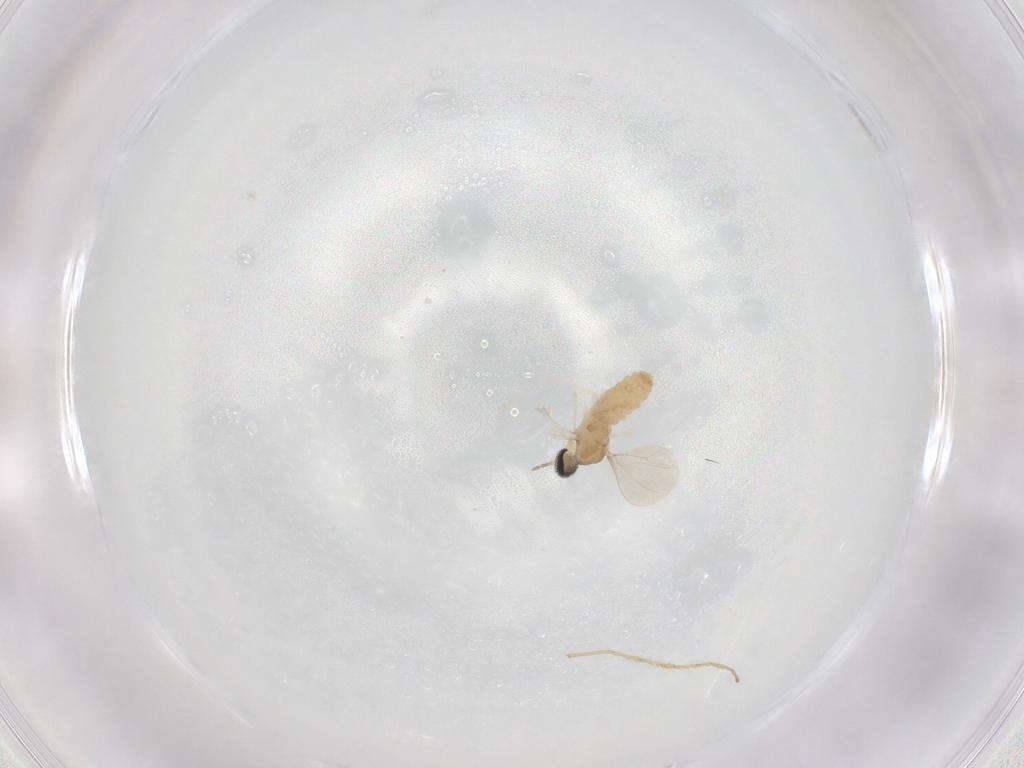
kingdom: Animalia
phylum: Arthropoda
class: Insecta
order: Diptera
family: Cecidomyiidae
